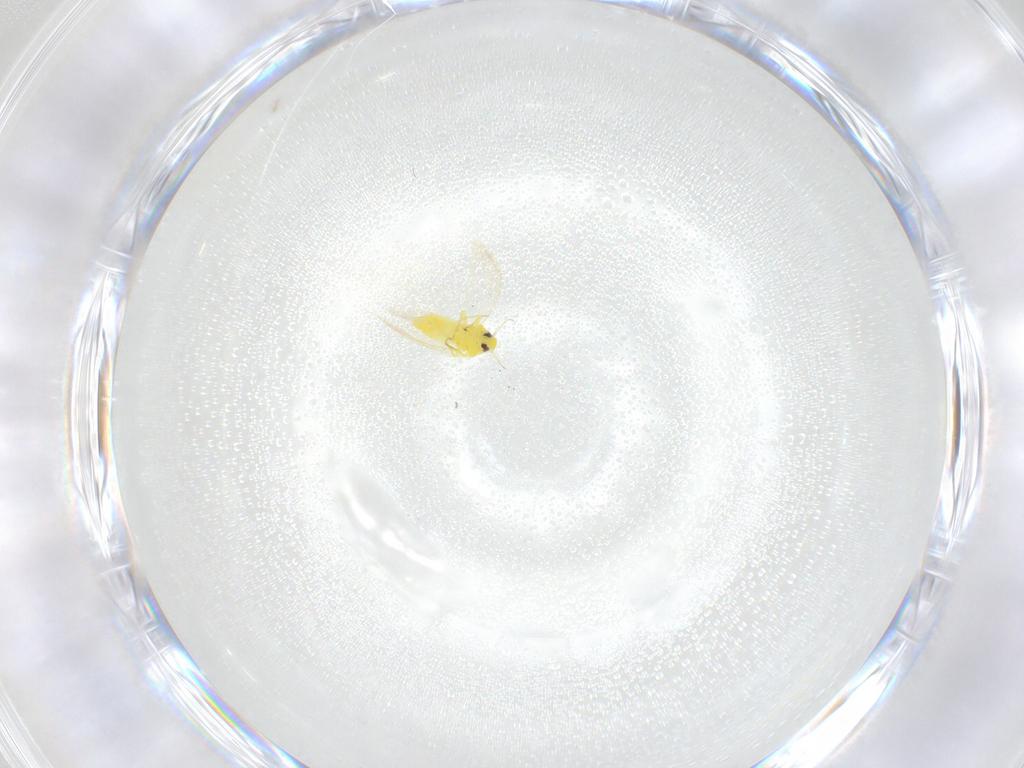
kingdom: Animalia
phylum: Arthropoda
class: Insecta
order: Hemiptera
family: Aleyrodidae
